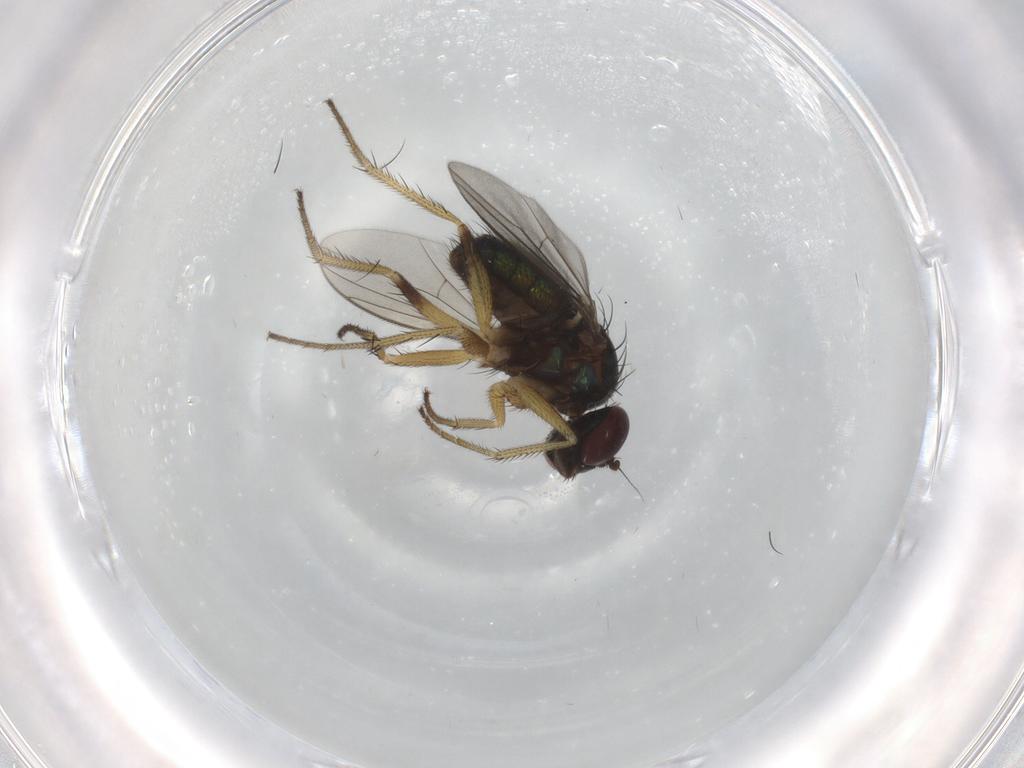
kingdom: Animalia
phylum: Arthropoda
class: Insecta
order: Diptera
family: Dolichopodidae
